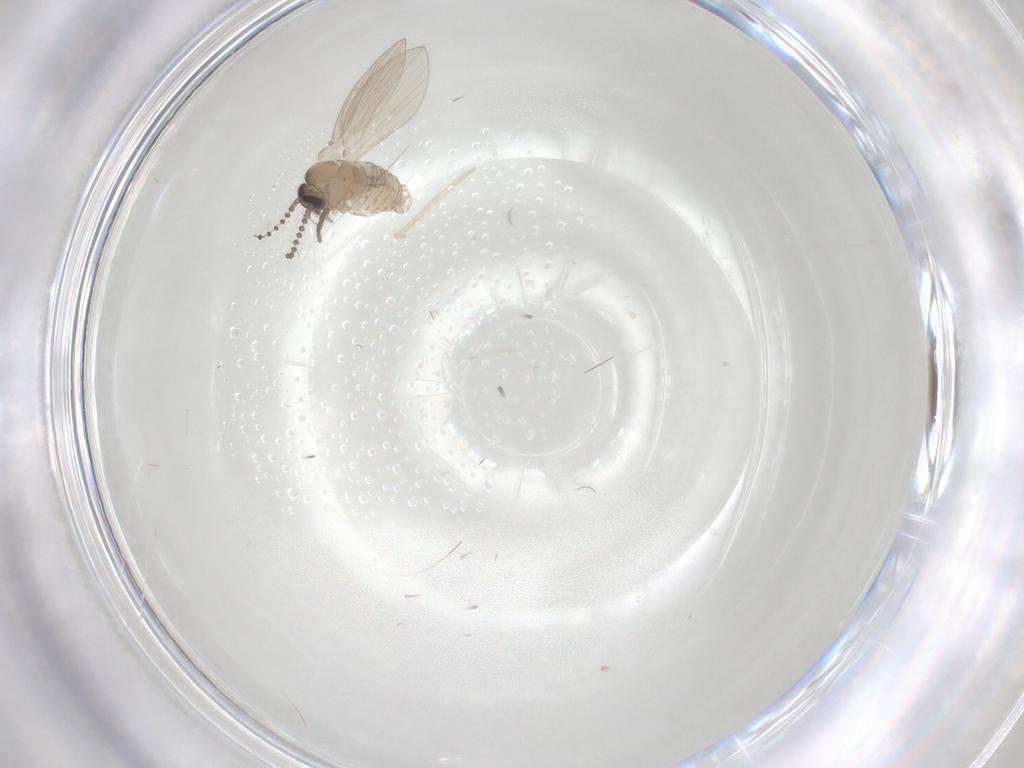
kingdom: Animalia
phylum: Arthropoda
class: Insecta
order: Diptera
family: Psychodidae
